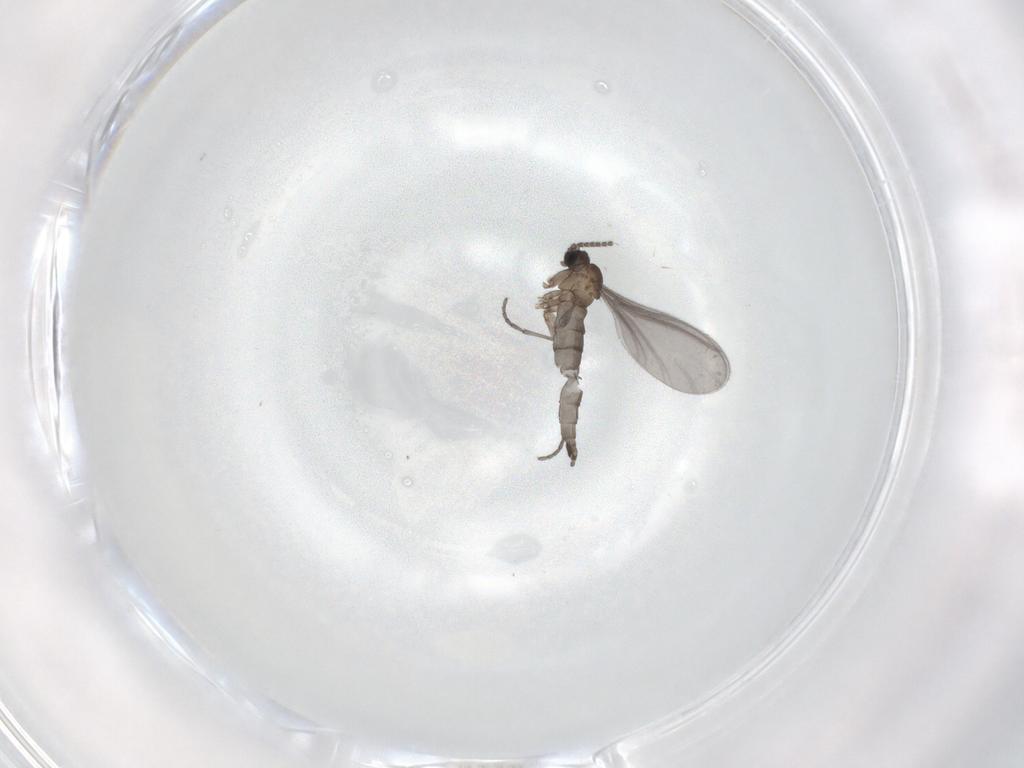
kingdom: Animalia
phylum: Arthropoda
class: Insecta
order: Diptera
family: Sciaridae
